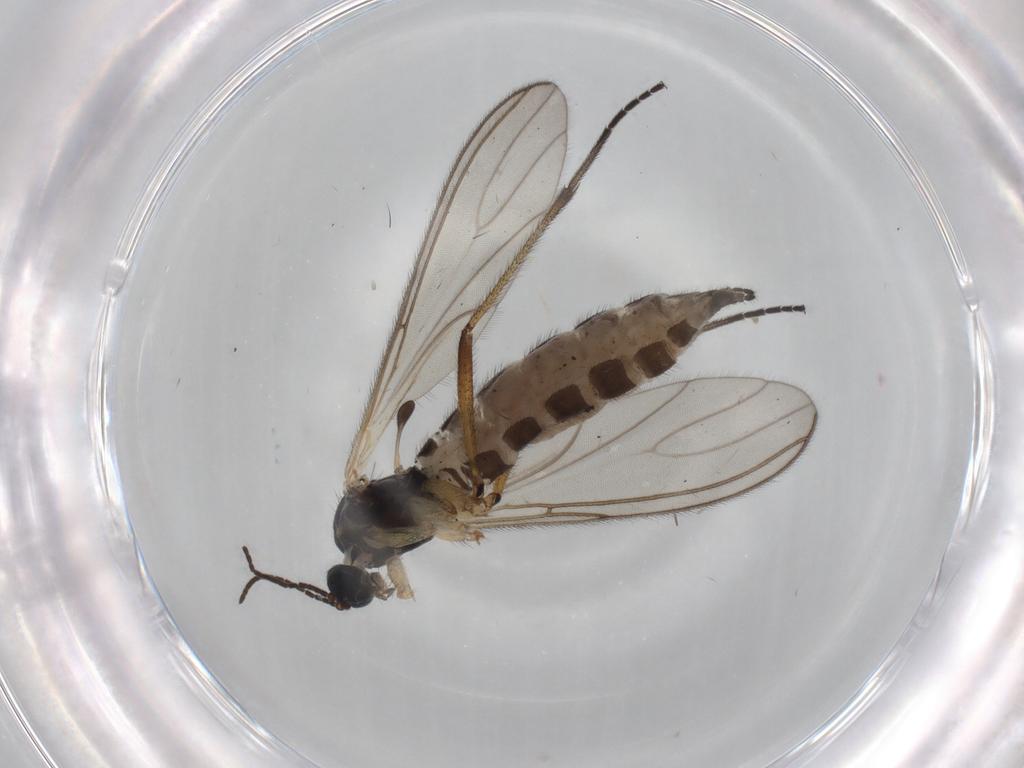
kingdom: Animalia
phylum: Arthropoda
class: Insecta
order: Diptera
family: Sciaridae
